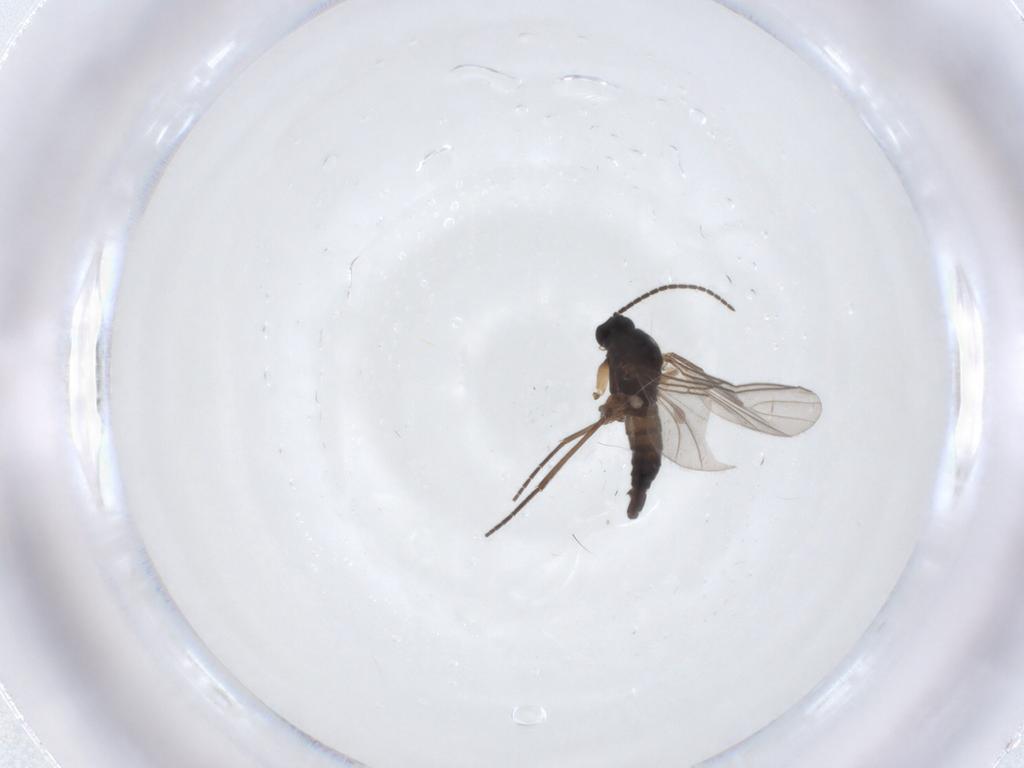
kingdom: Animalia
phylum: Arthropoda
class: Insecta
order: Diptera
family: Sciaridae
